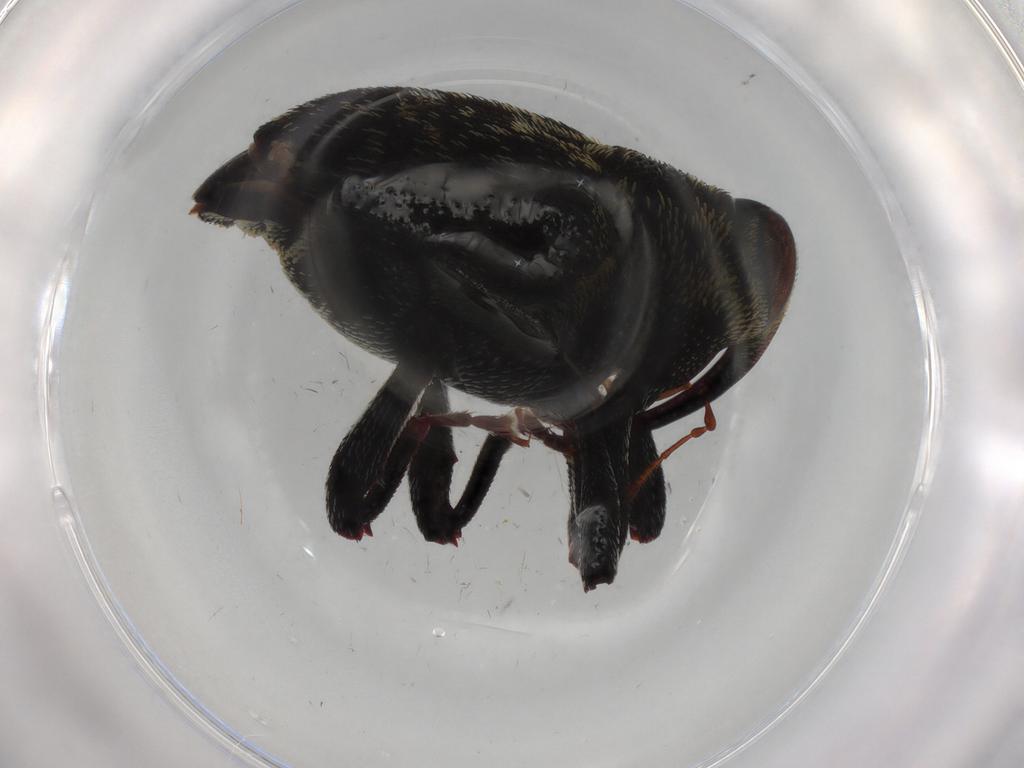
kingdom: Animalia
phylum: Arthropoda
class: Insecta
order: Coleoptera
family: Curculionidae
